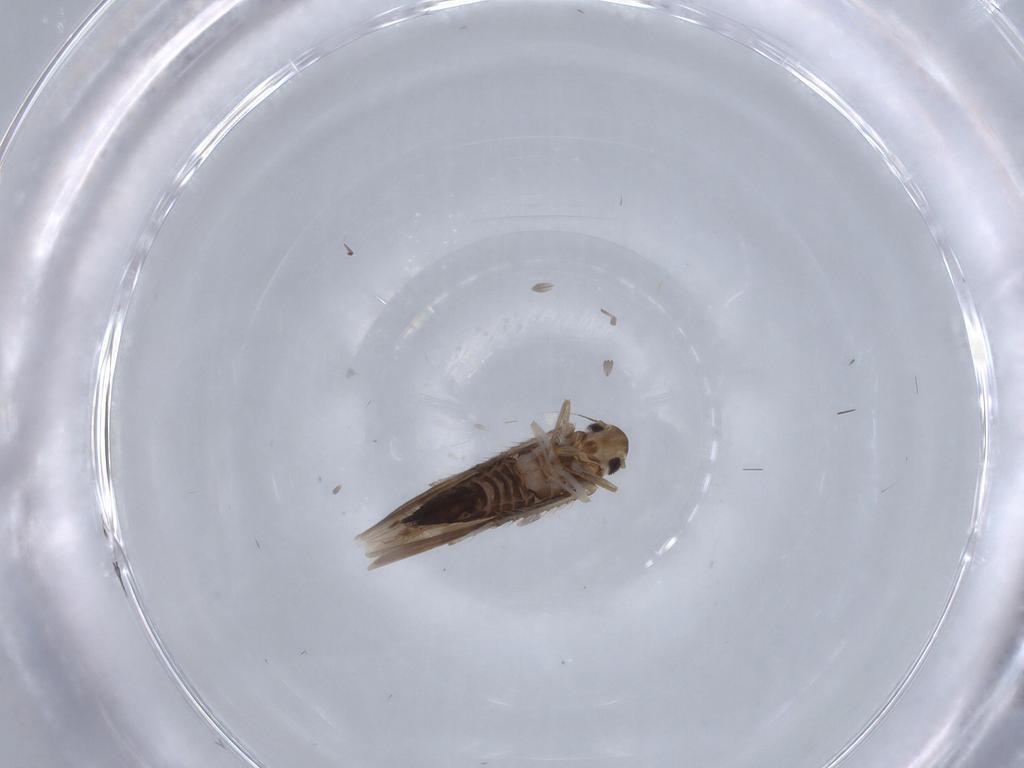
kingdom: Animalia
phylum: Arthropoda
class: Insecta
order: Hemiptera
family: Cicadellidae
